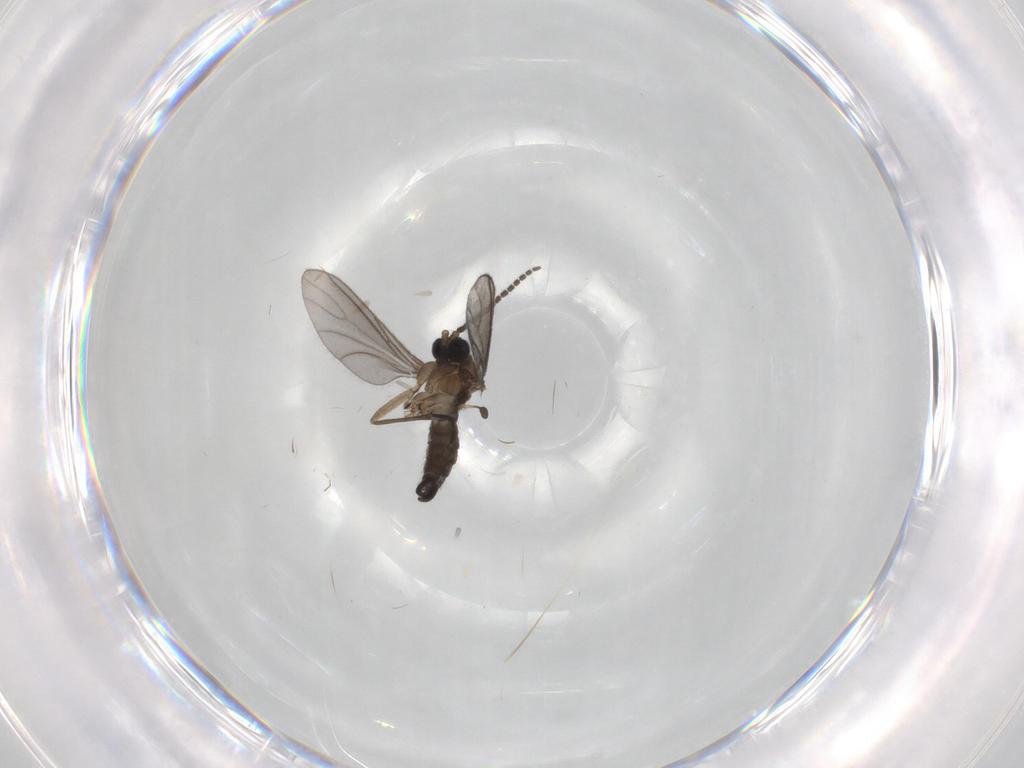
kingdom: Animalia
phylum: Arthropoda
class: Insecta
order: Diptera
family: Sciaridae
